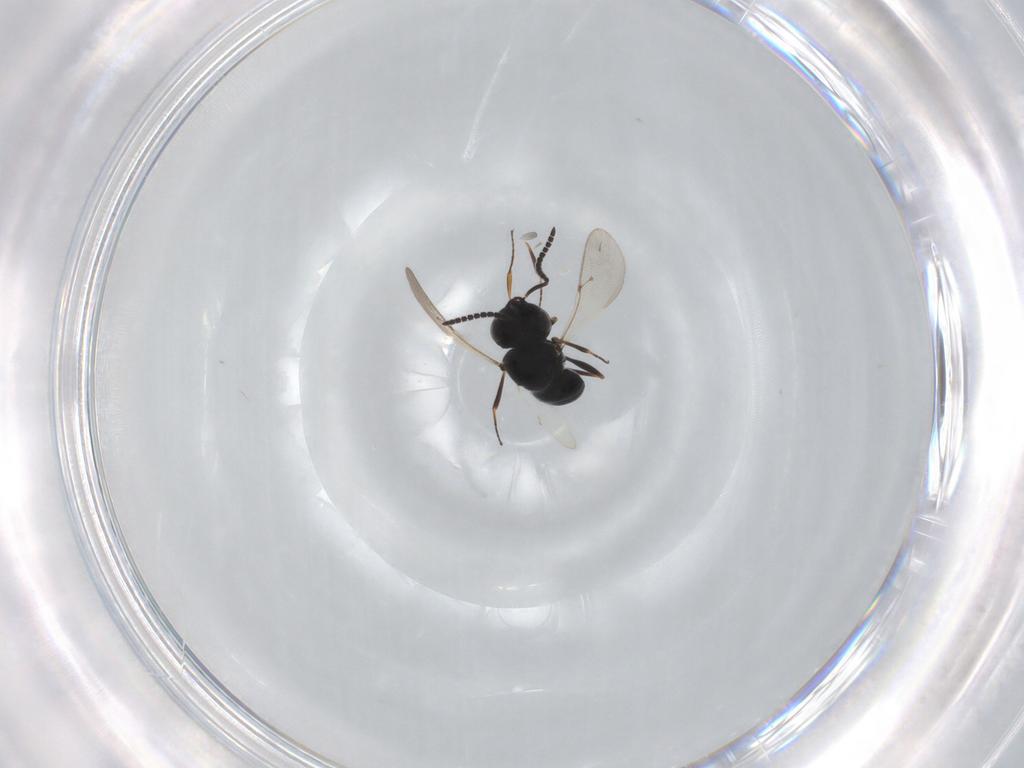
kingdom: Animalia
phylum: Arthropoda
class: Insecta
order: Hymenoptera
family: Scelionidae
